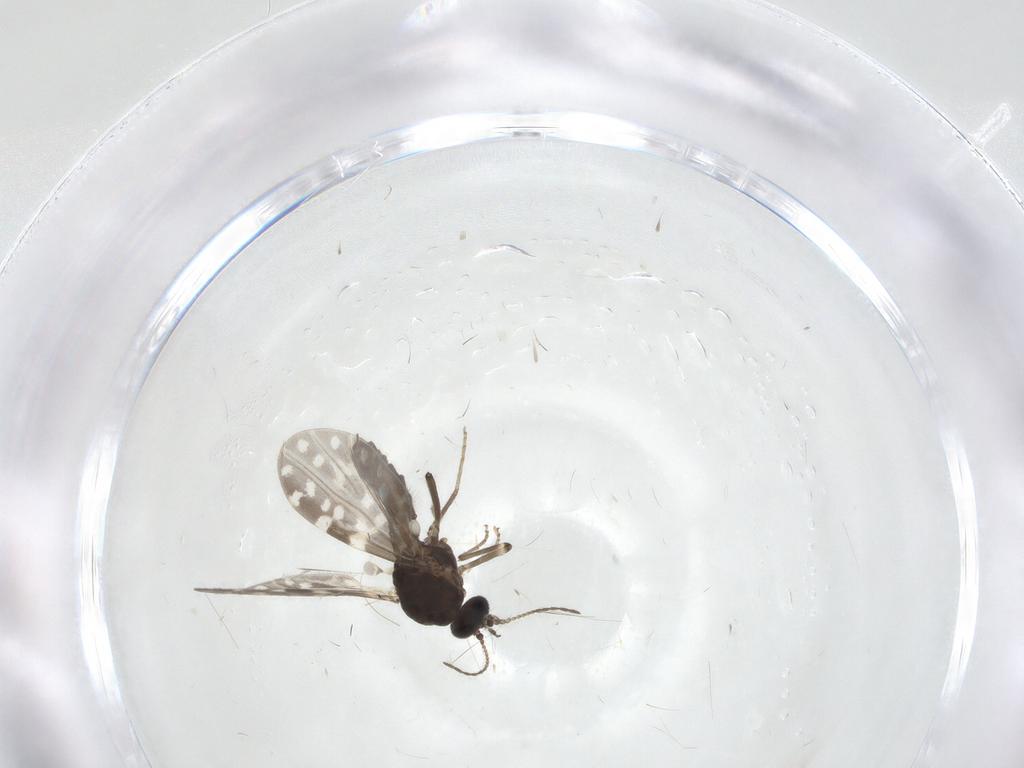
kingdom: Animalia
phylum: Arthropoda
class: Insecta
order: Diptera
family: Ceratopogonidae
